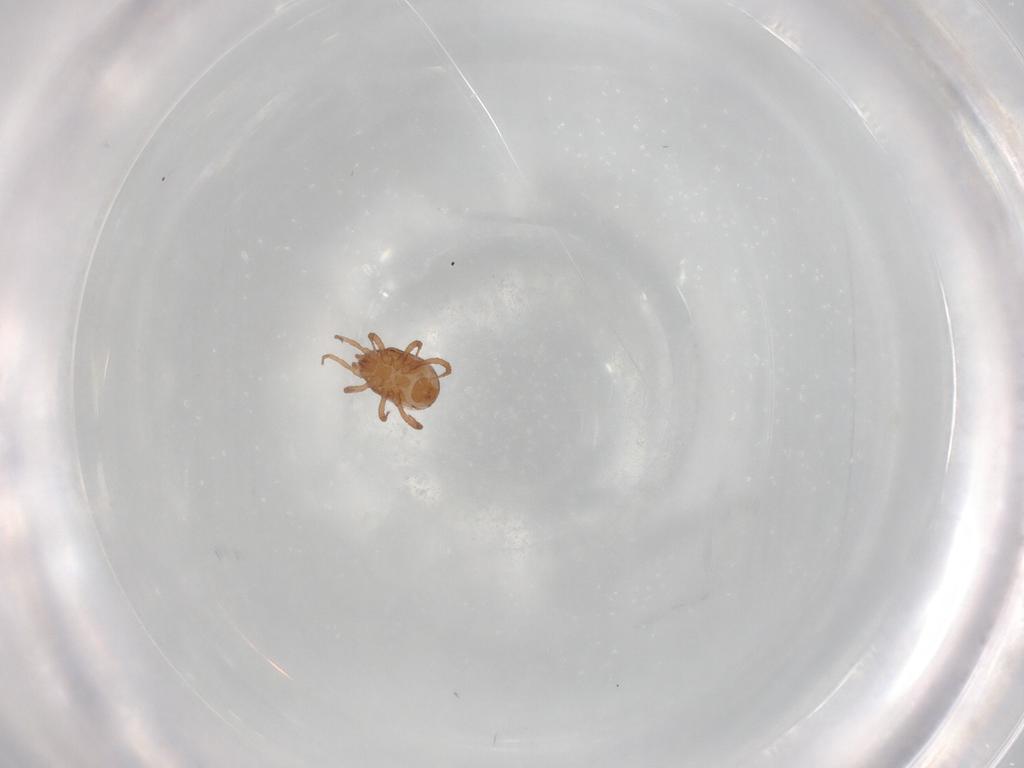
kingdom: Animalia
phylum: Arthropoda
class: Arachnida
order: Mesostigmata
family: Blattisociidae
